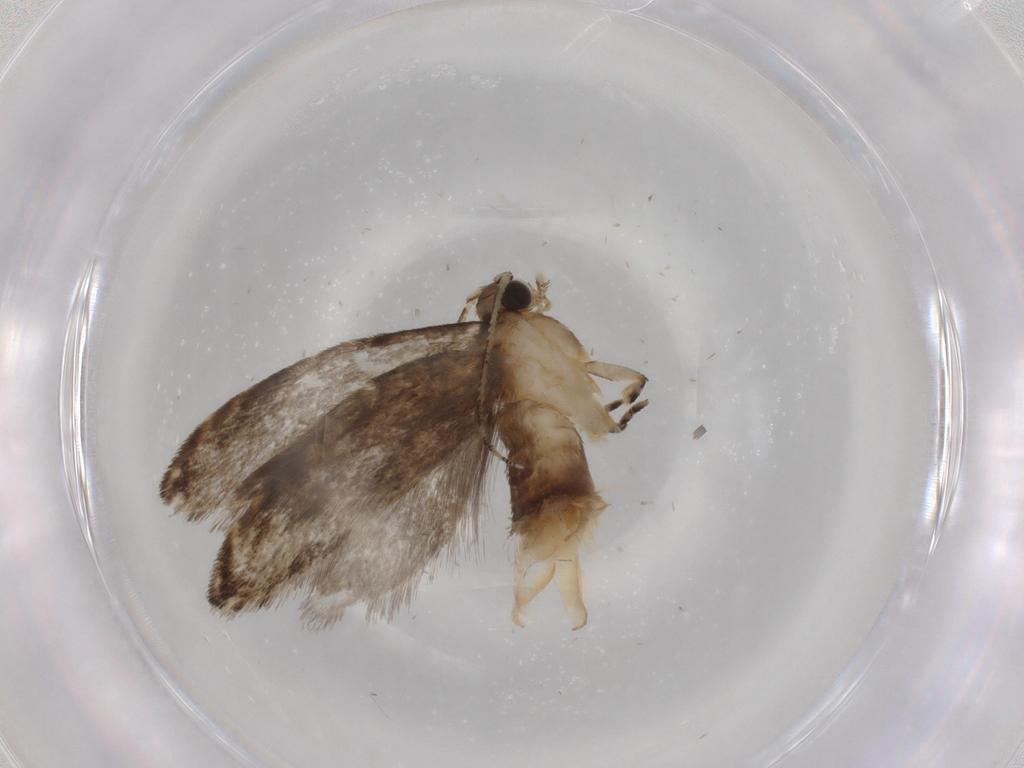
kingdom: Animalia
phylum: Arthropoda
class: Insecta
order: Lepidoptera
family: Tineidae
